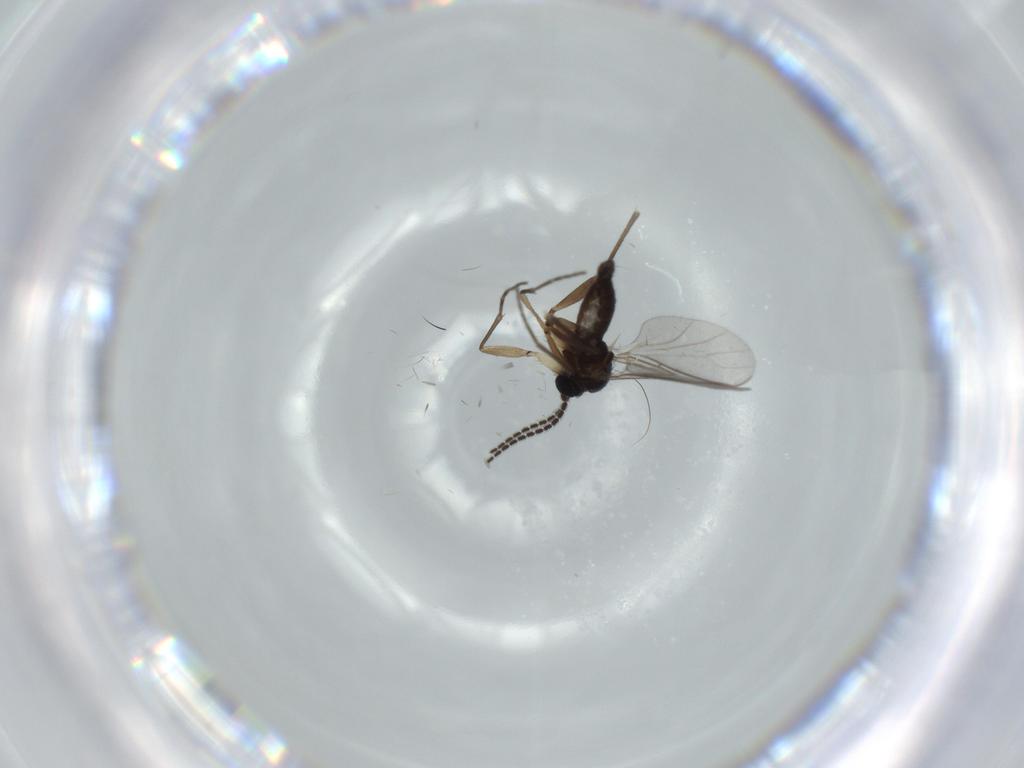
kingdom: Animalia
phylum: Arthropoda
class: Insecta
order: Diptera
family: Sciaridae
